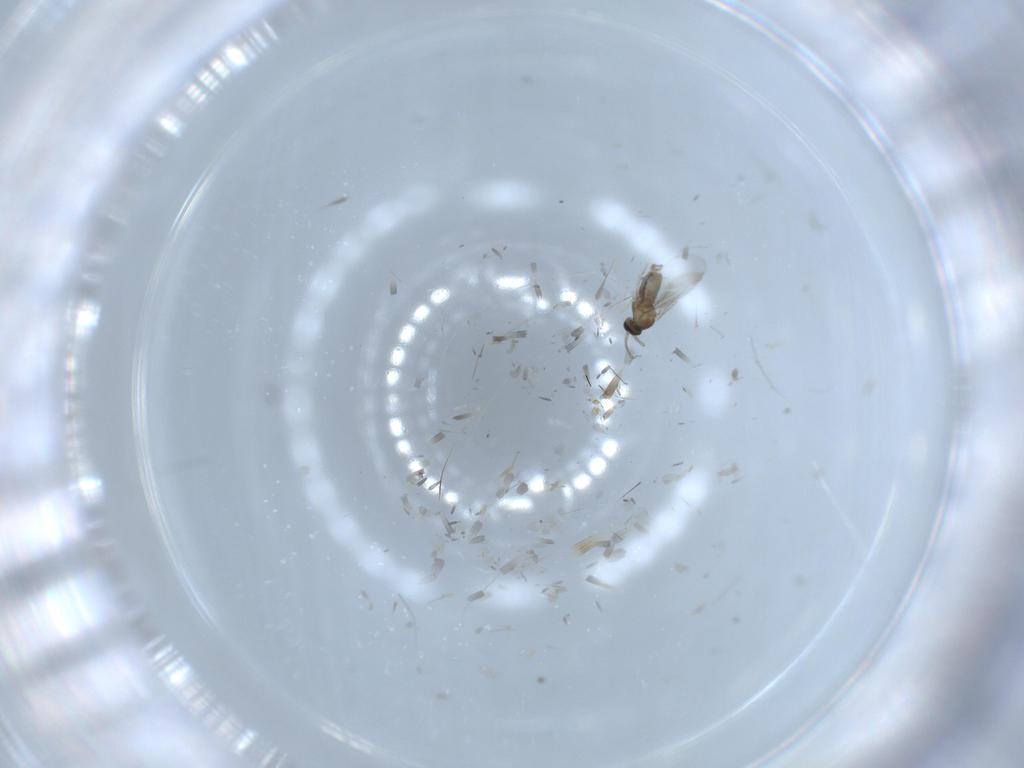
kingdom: Animalia
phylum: Arthropoda
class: Insecta
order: Diptera
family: Cecidomyiidae
